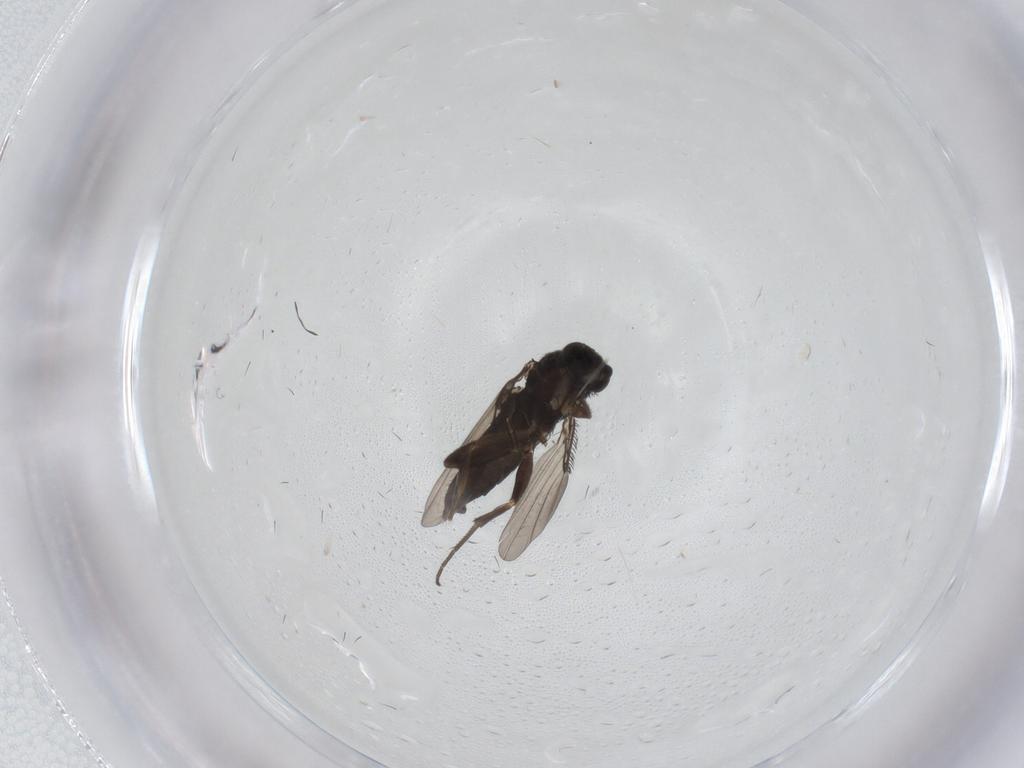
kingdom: Animalia
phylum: Arthropoda
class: Insecta
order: Diptera
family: Phoridae
